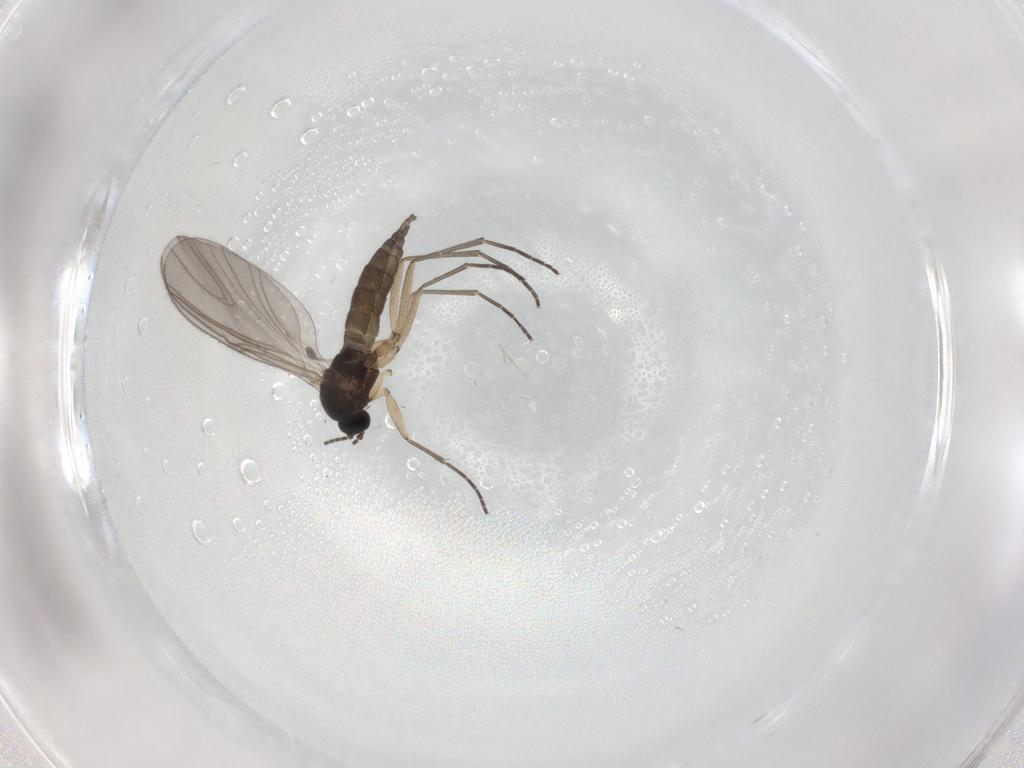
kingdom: Animalia
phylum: Arthropoda
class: Insecta
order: Diptera
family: Sciaridae
